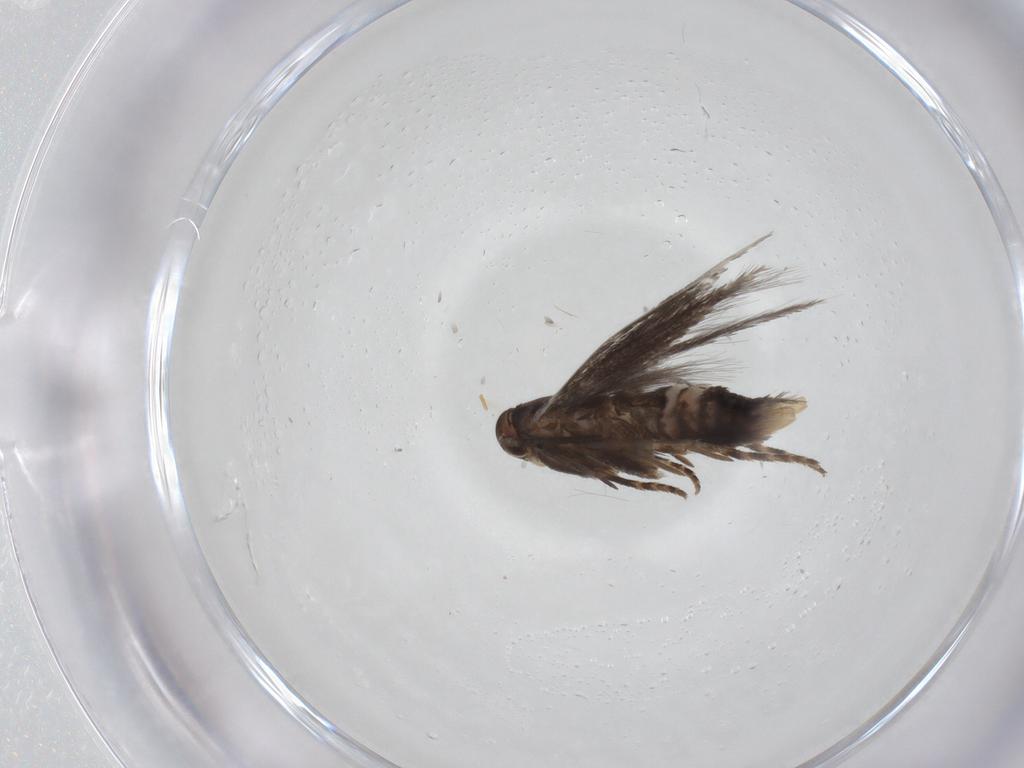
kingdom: Animalia
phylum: Arthropoda
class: Insecta
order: Lepidoptera
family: Elachistidae
